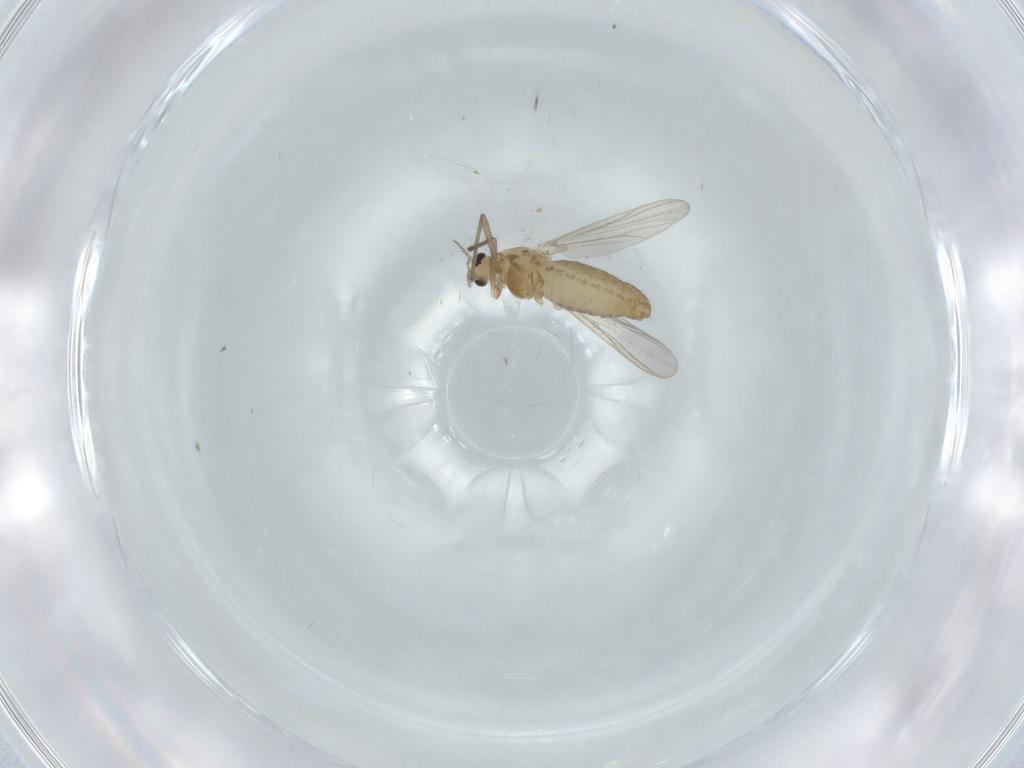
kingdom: Animalia
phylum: Arthropoda
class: Insecta
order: Diptera
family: Chironomidae
